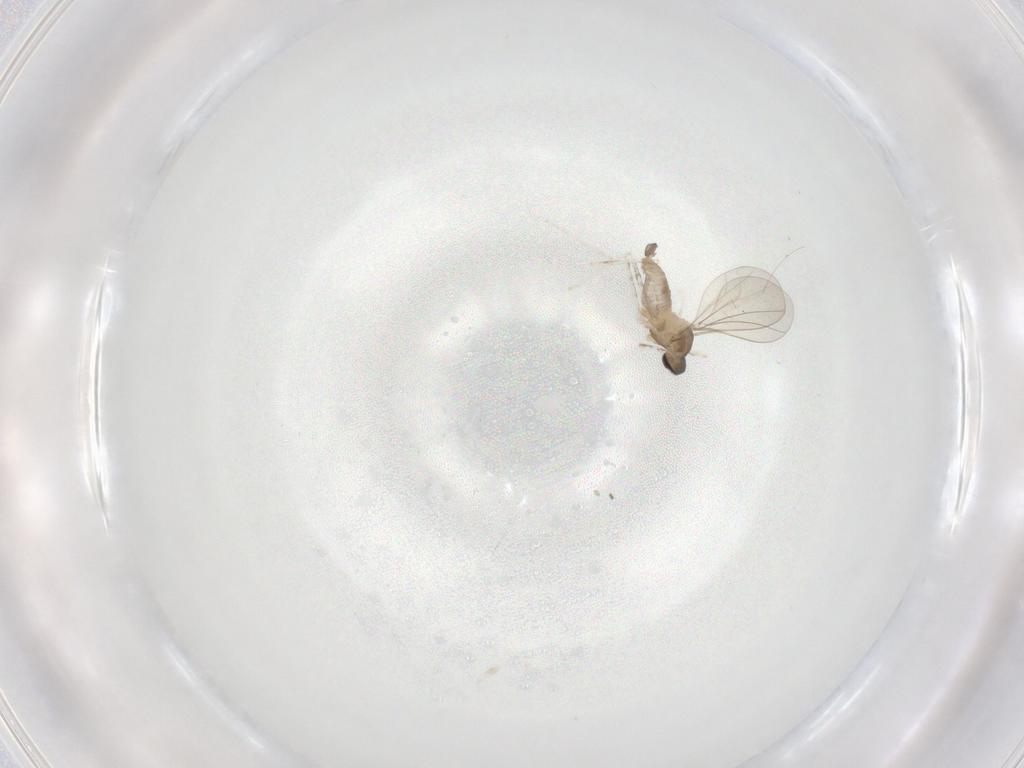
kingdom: Animalia
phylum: Arthropoda
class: Insecta
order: Diptera
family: Cecidomyiidae
